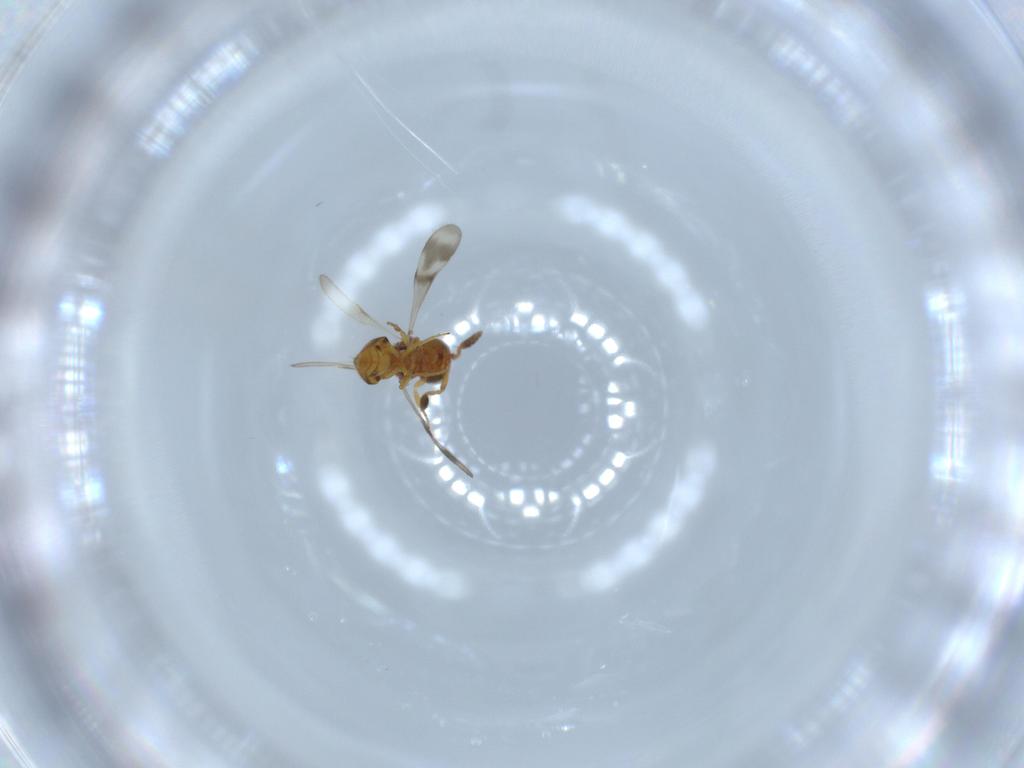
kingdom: Animalia
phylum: Arthropoda
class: Insecta
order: Hymenoptera
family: Scelionidae
